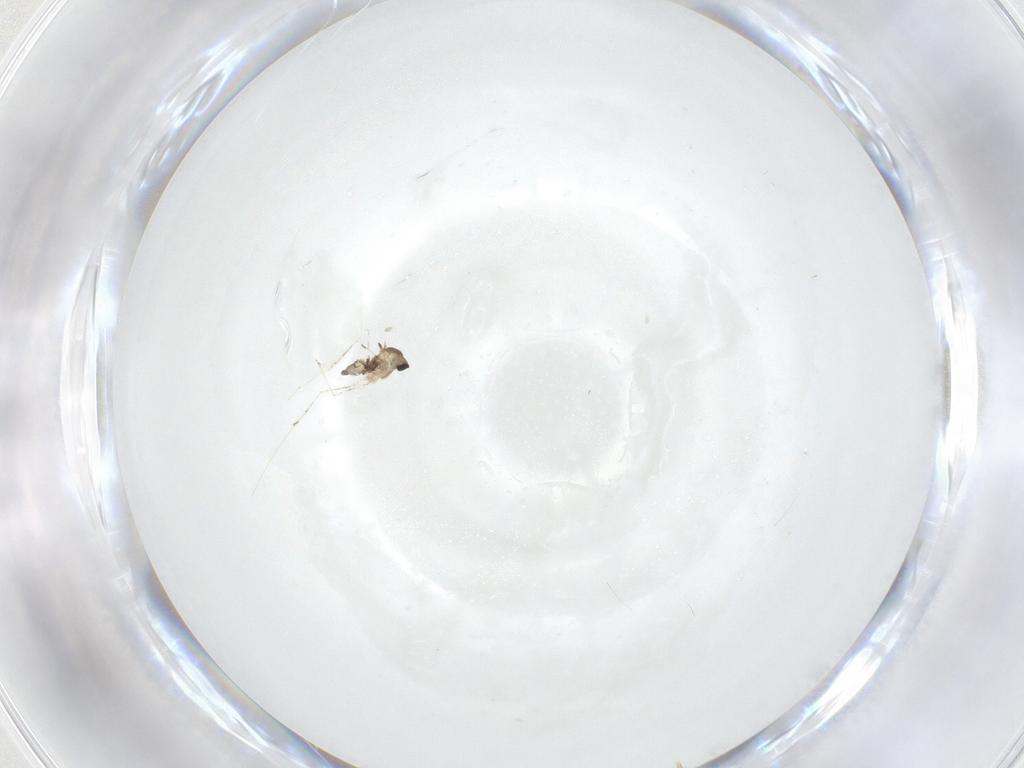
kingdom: Animalia
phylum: Arthropoda
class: Insecta
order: Diptera
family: Cecidomyiidae
